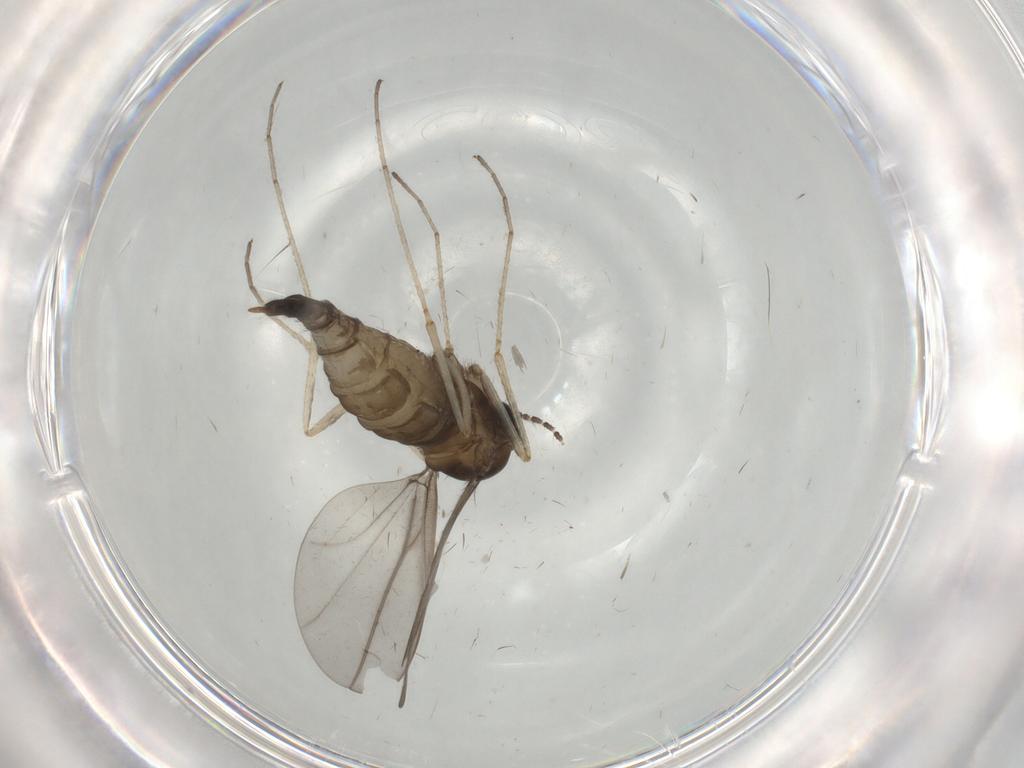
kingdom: Animalia
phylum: Arthropoda
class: Insecta
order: Diptera
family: Cecidomyiidae
